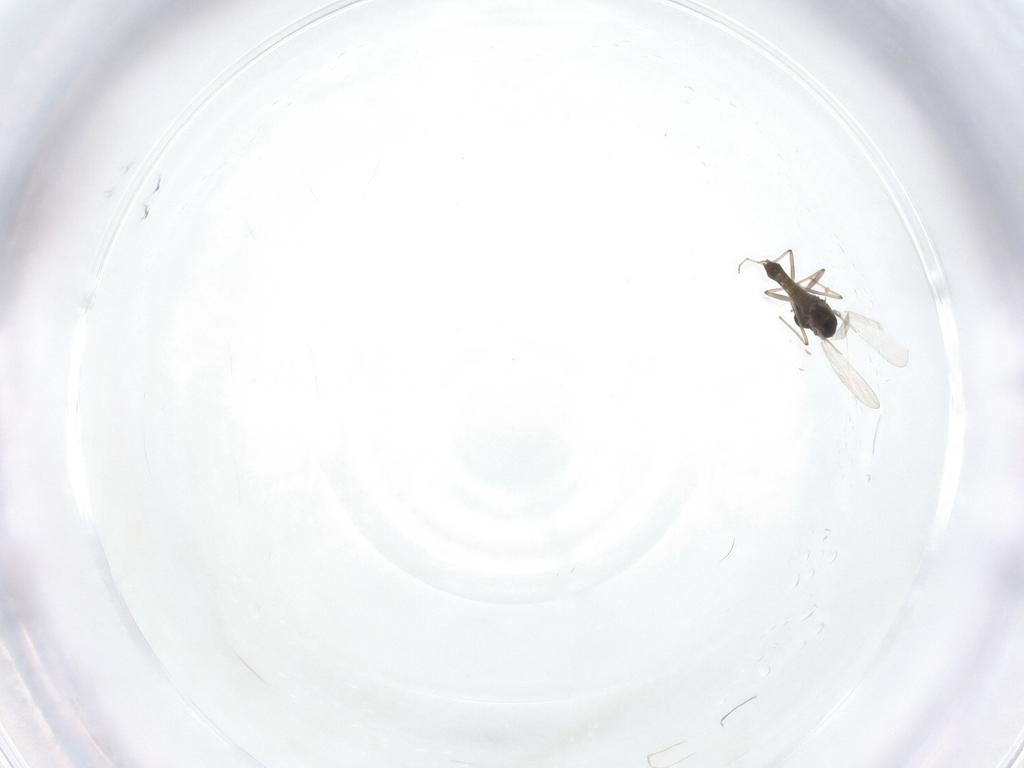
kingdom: Animalia
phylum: Arthropoda
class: Insecta
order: Diptera
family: Chironomidae
